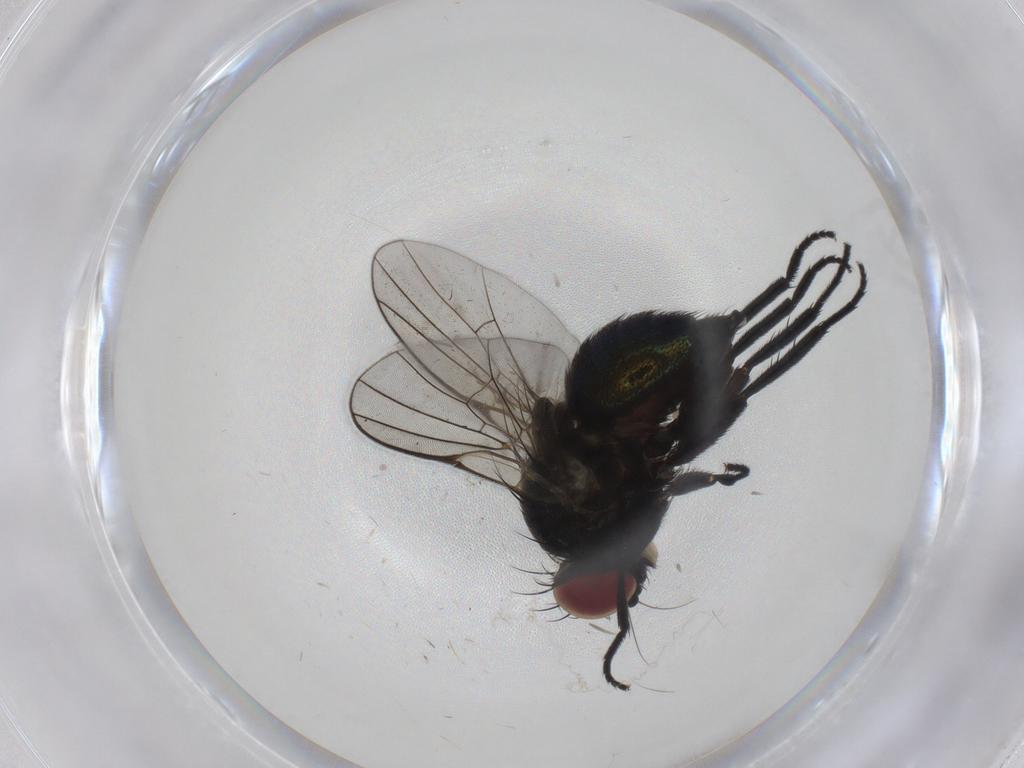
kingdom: Animalia
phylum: Arthropoda
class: Insecta
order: Diptera
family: Agromyzidae
